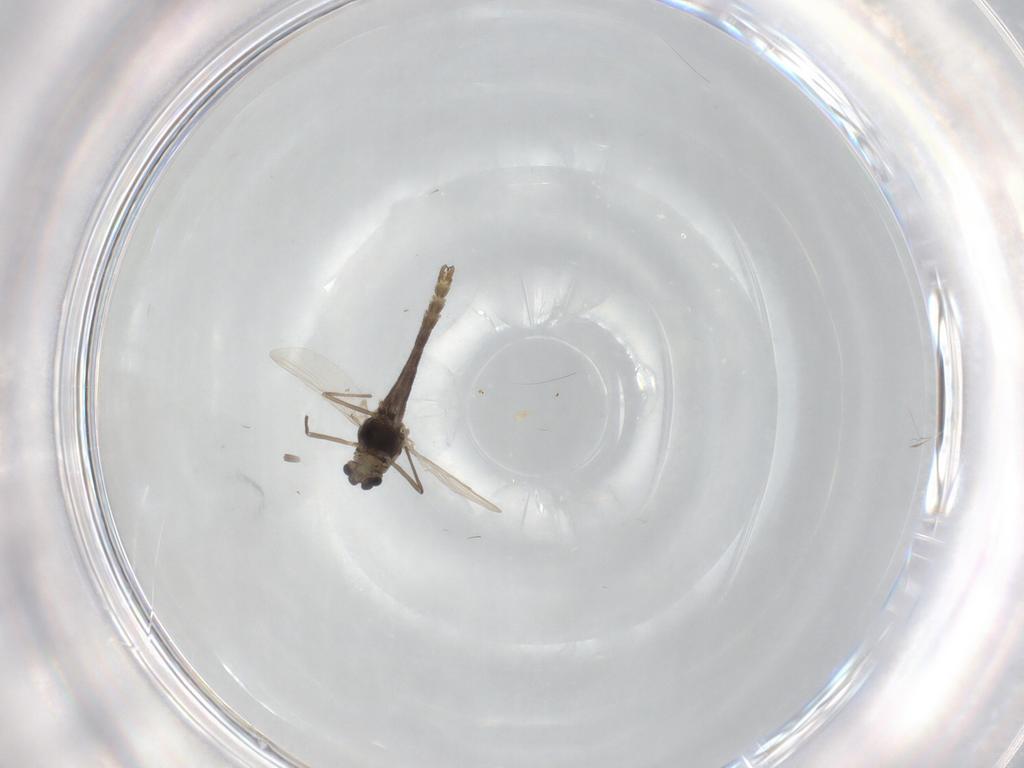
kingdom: Animalia
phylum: Arthropoda
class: Insecta
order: Diptera
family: Chironomidae
